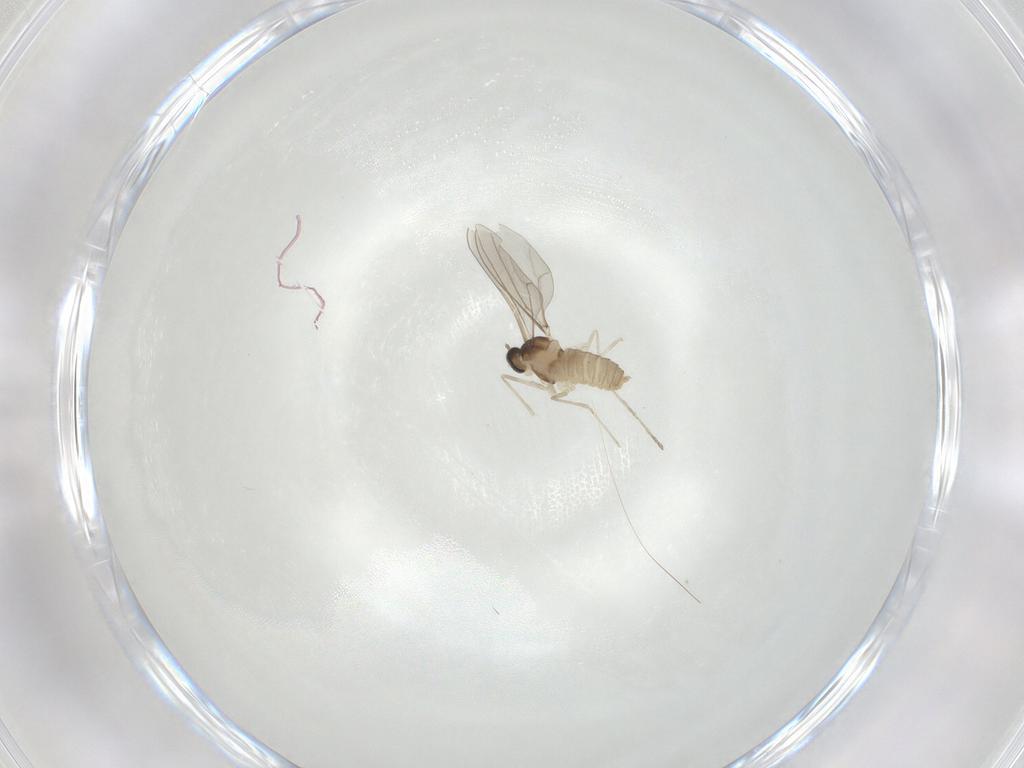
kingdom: Animalia
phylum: Arthropoda
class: Insecta
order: Diptera
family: Cecidomyiidae
